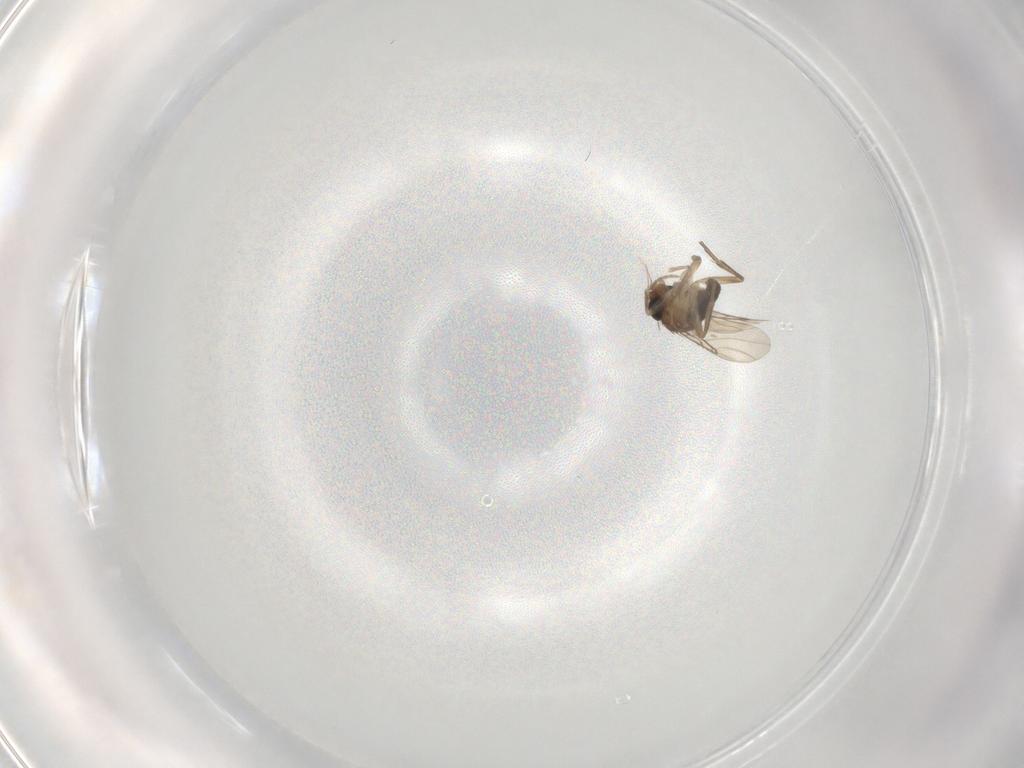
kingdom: Animalia
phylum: Arthropoda
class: Insecta
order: Diptera
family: Phoridae
